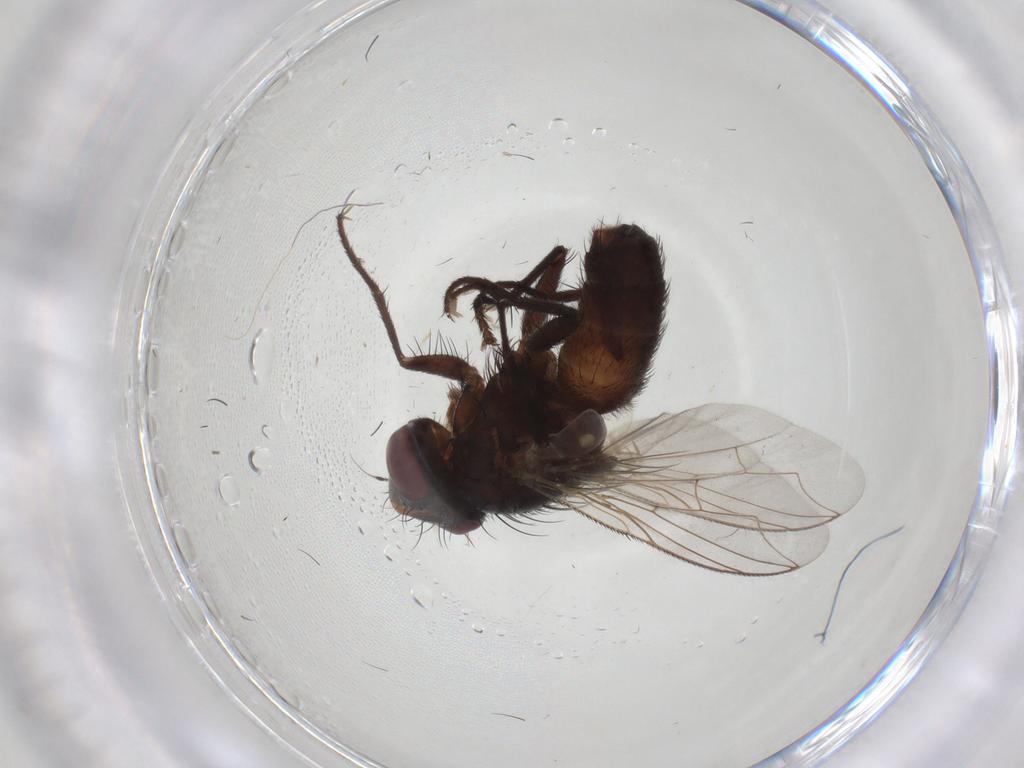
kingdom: Animalia
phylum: Arthropoda
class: Insecta
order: Diptera
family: Sarcophagidae
